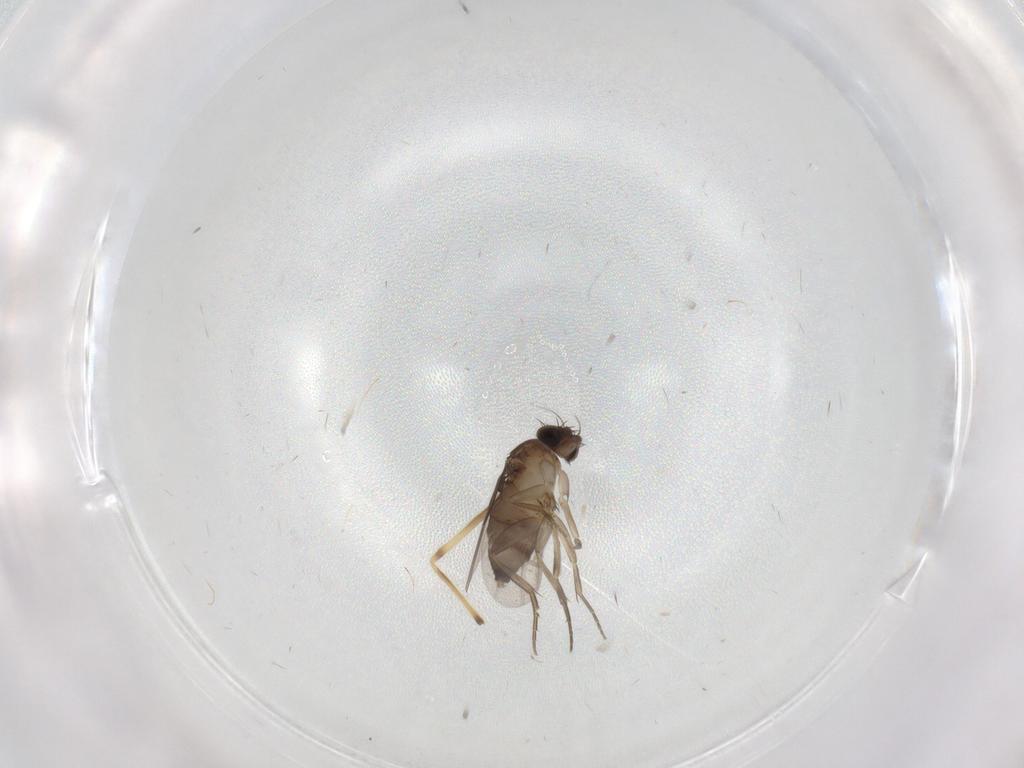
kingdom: Animalia
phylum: Arthropoda
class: Insecta
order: Diptera
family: Phoridae
